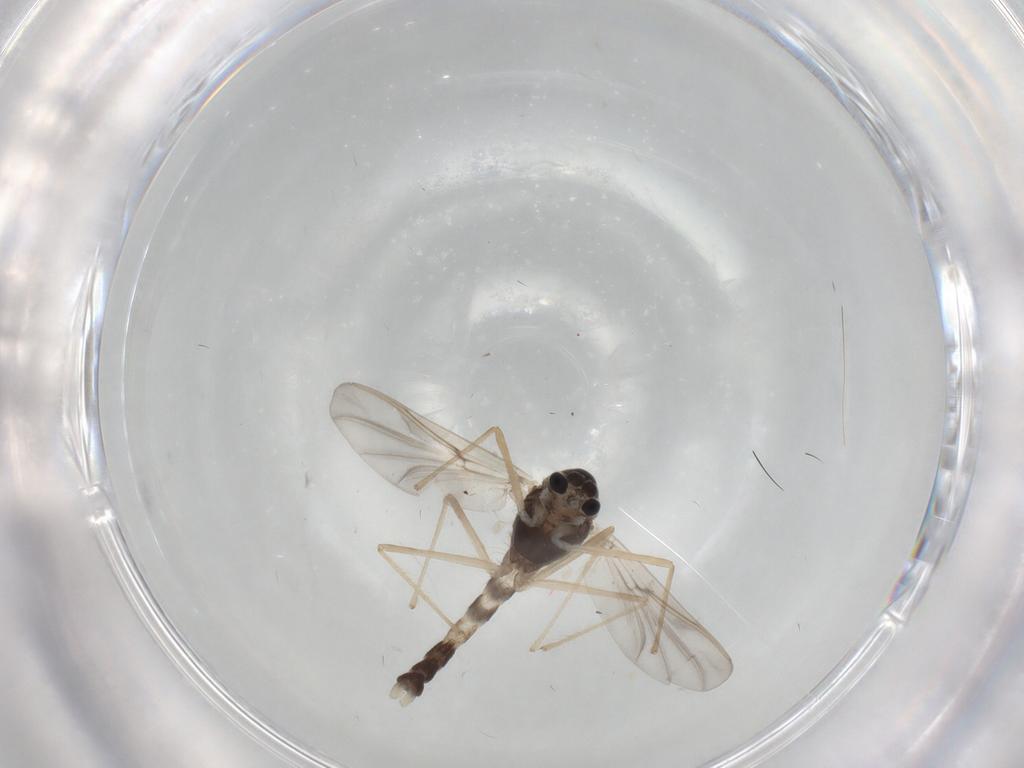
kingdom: Animalia
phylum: Arthropoda
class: Insecta
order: Diptera
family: Chironomidae
